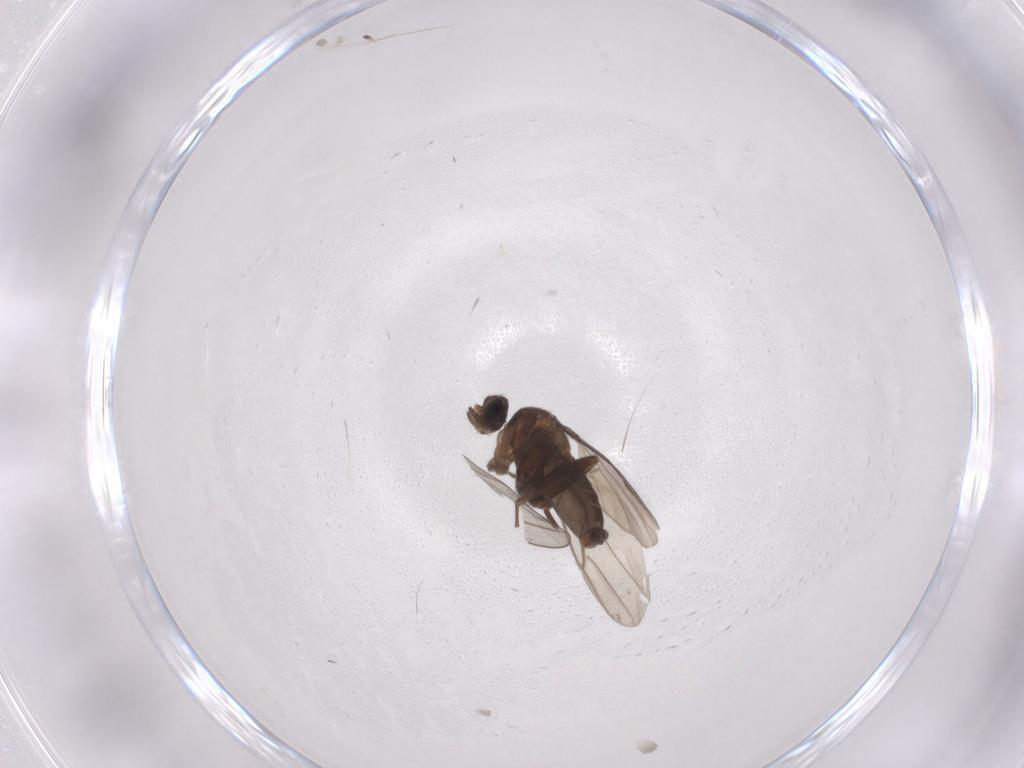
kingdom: Animalia
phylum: Arthropoda
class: Insecta
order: Diptera
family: Phoridae
